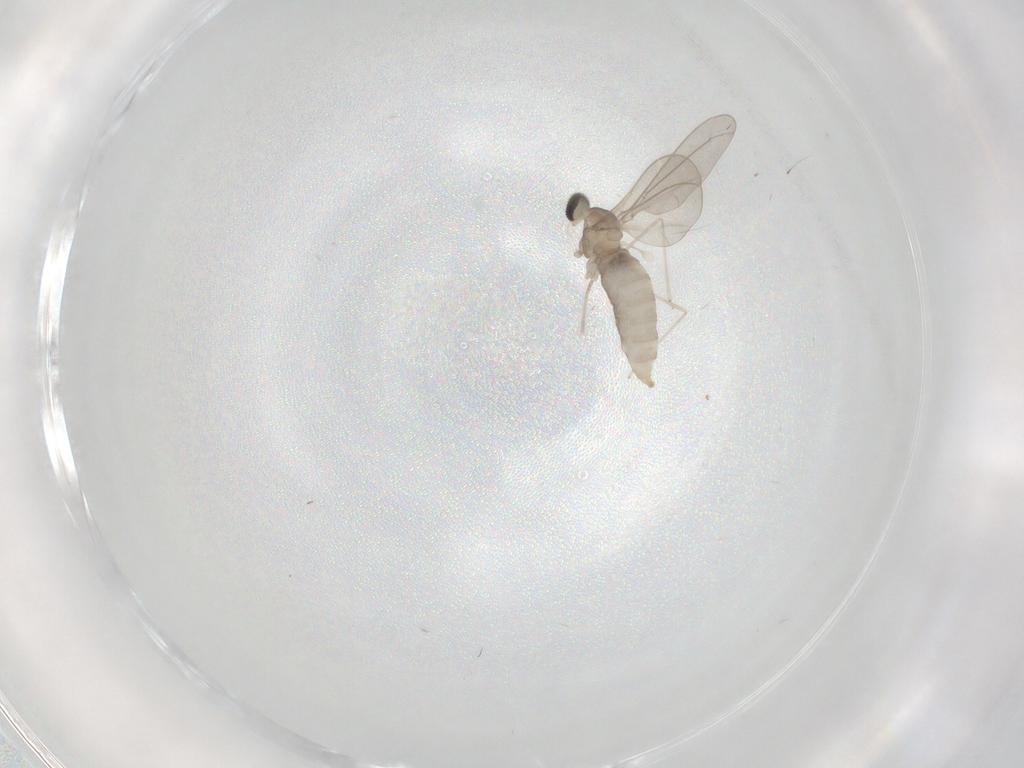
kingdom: Animalia
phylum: Arthropoda
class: Insecta
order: Diptera
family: Cecidomyiidae
